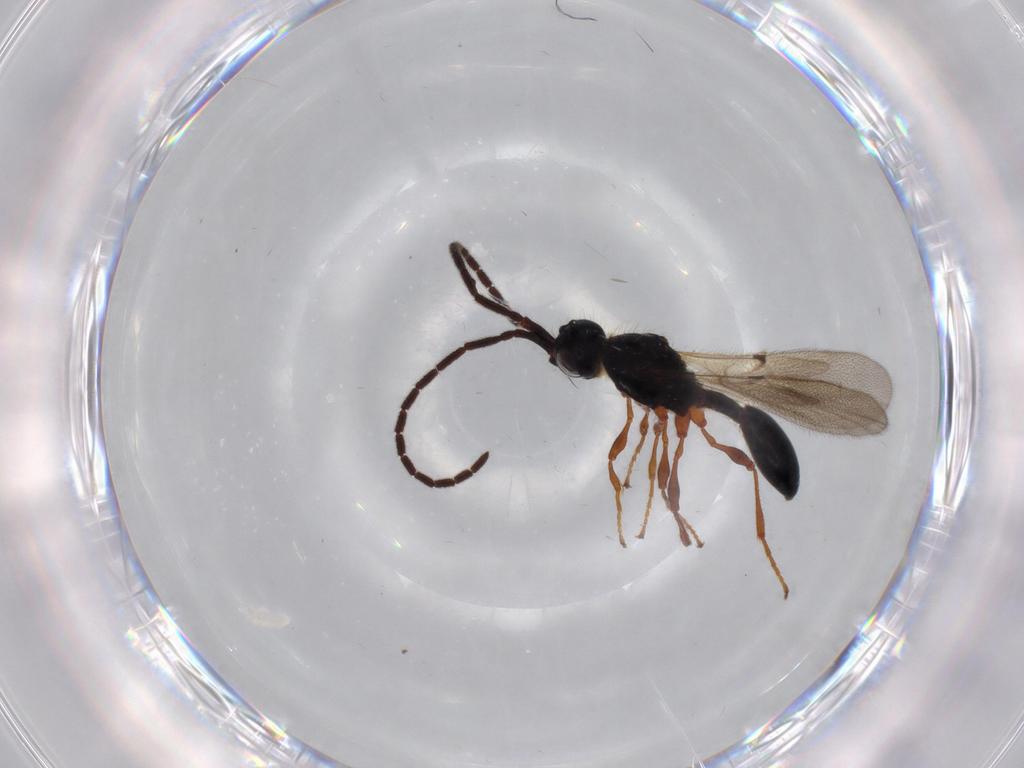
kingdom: Animalia
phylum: Arthropoda
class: Insecta
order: Hymenoptera
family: Diapriidae
